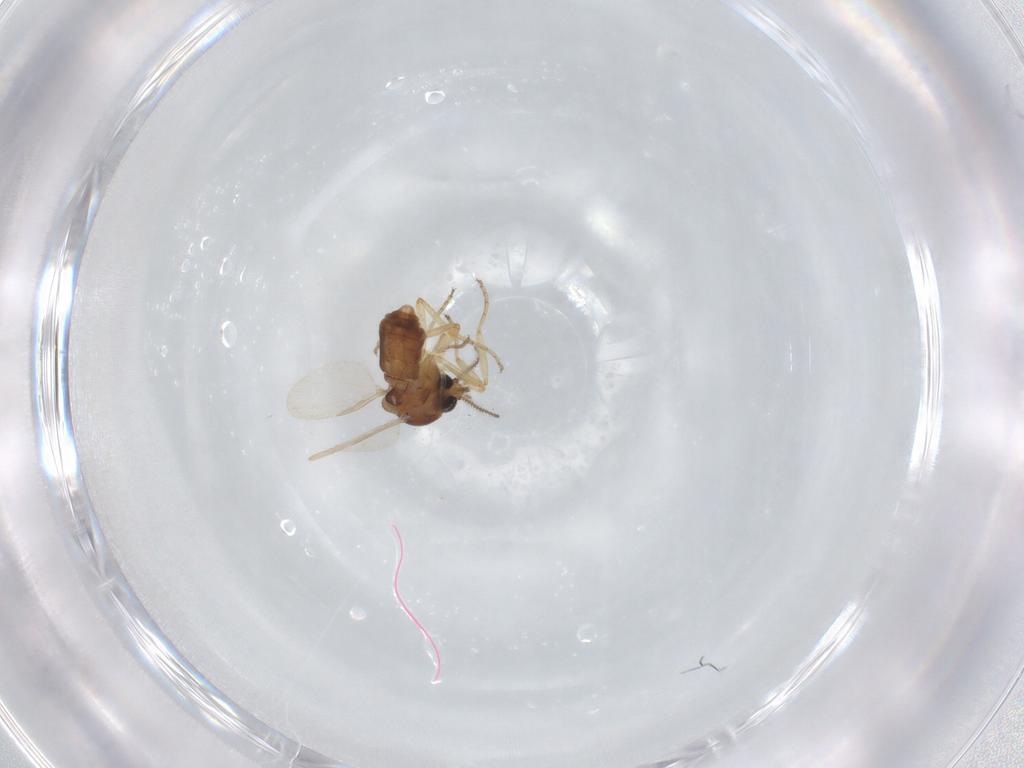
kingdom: Animalia
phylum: Arthropoda
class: Insecta
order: Diptera
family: Ceratopogonidae
